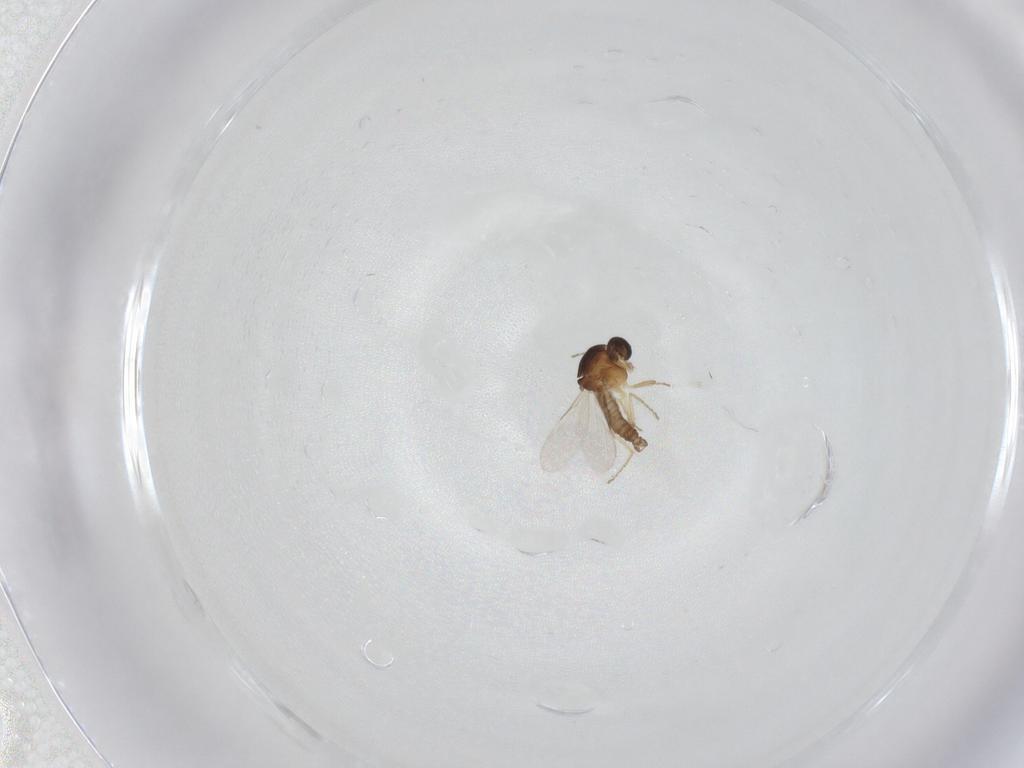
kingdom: Animalia
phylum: Arthropoda
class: Insecta
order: Diptera
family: Ceratopogonidae
